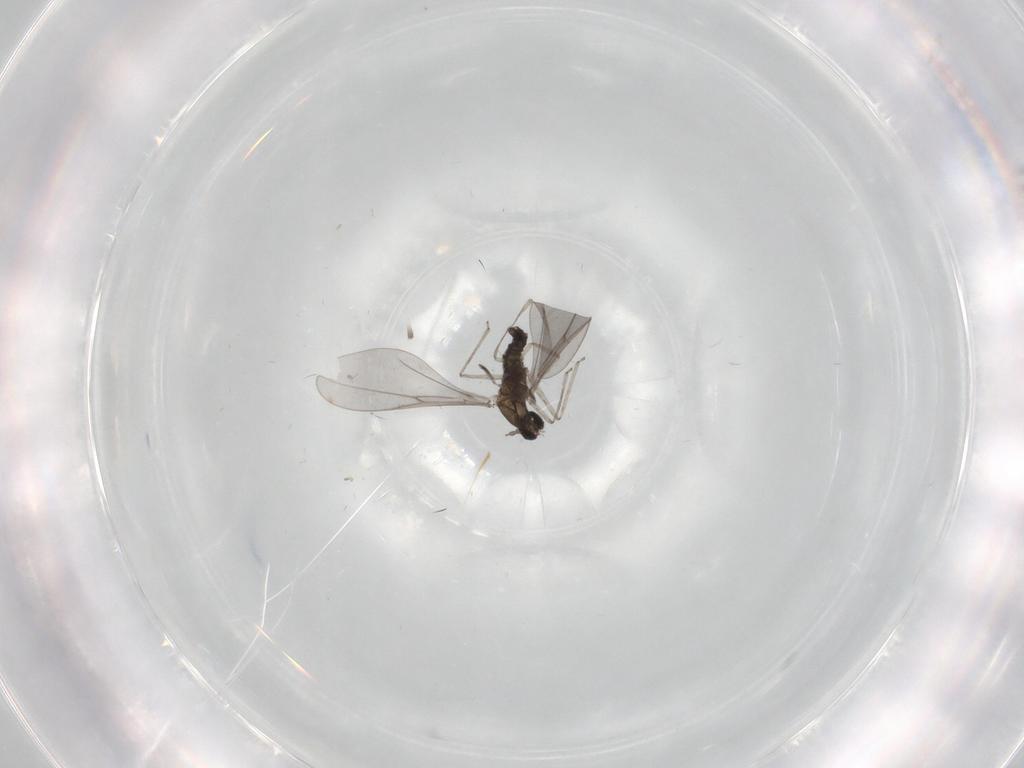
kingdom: Animalia
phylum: Arthropoda
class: Insecta
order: Diptera
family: Cecidomyiidae
